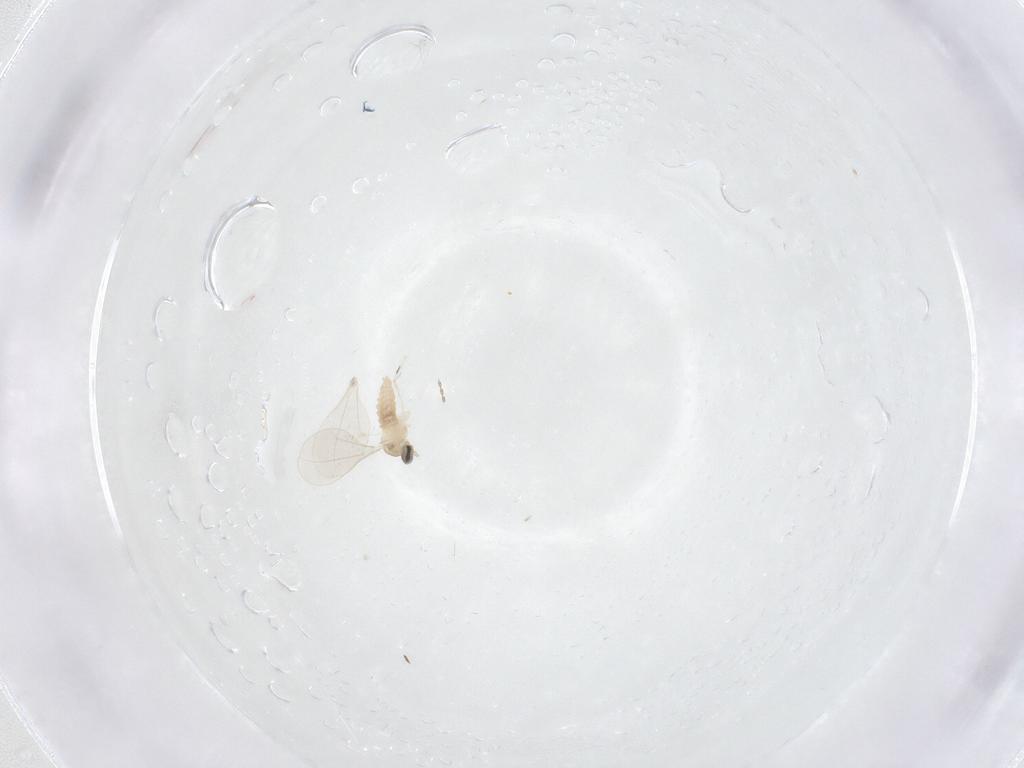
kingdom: Animalia
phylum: Arthropoda
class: Insecta
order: Diptera
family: Cecidomyiidae
